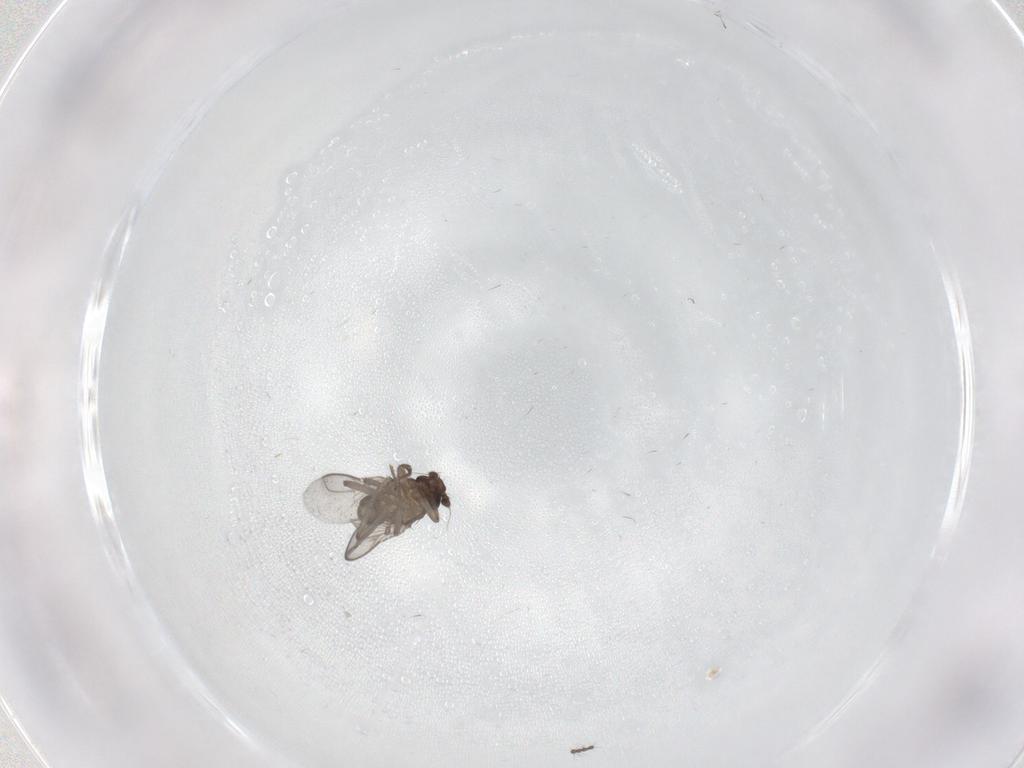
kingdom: Animalia
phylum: Arthropoda
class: Insecta
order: Diptera
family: Sphaeroceridae
